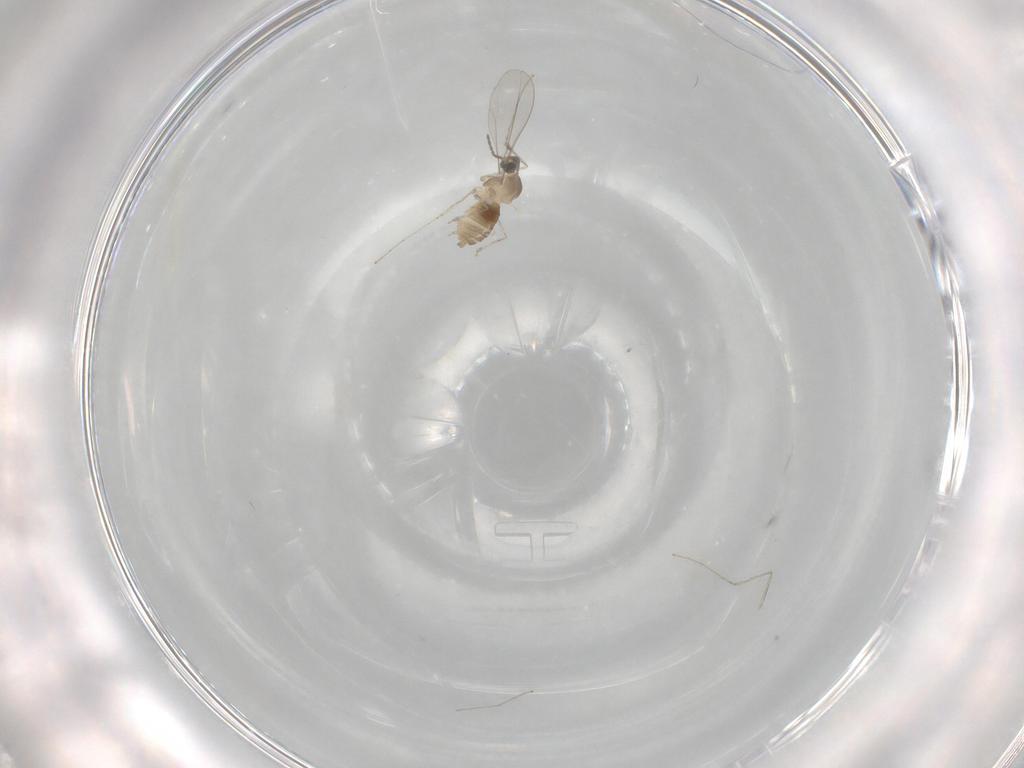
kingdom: Animalia
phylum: Arthropoda
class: Insecta
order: Diptera
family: Cecidomyiidae
